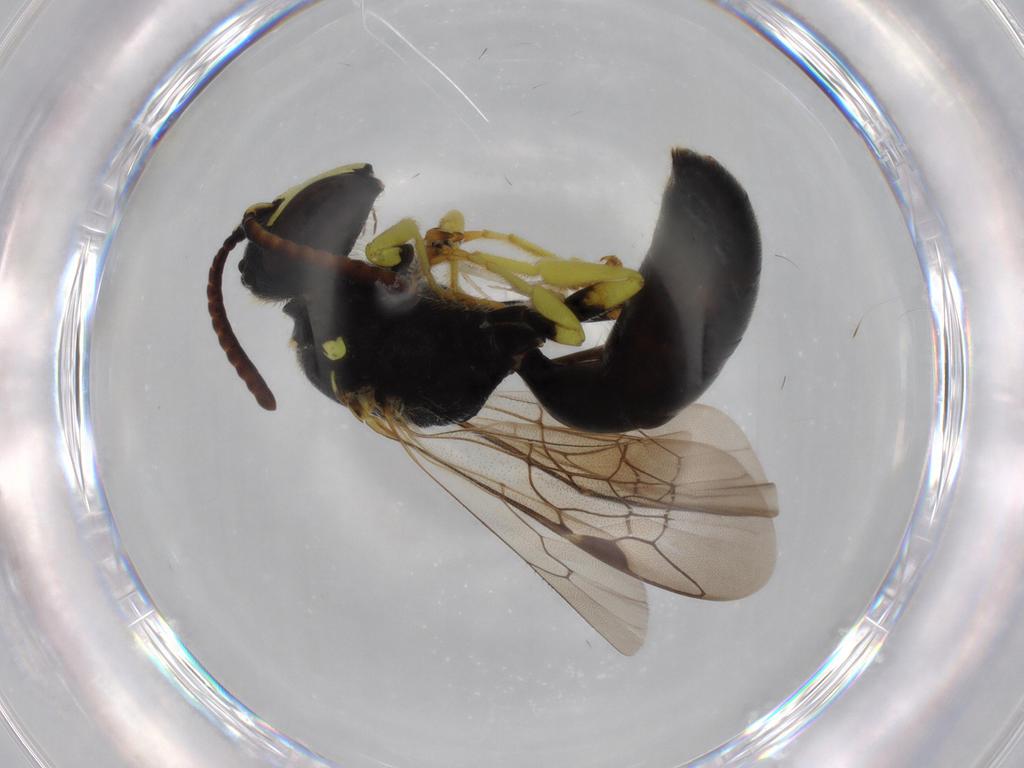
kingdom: Animalia
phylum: Arthropoda
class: Insecta
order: Hymenoptera
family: Colletidae
